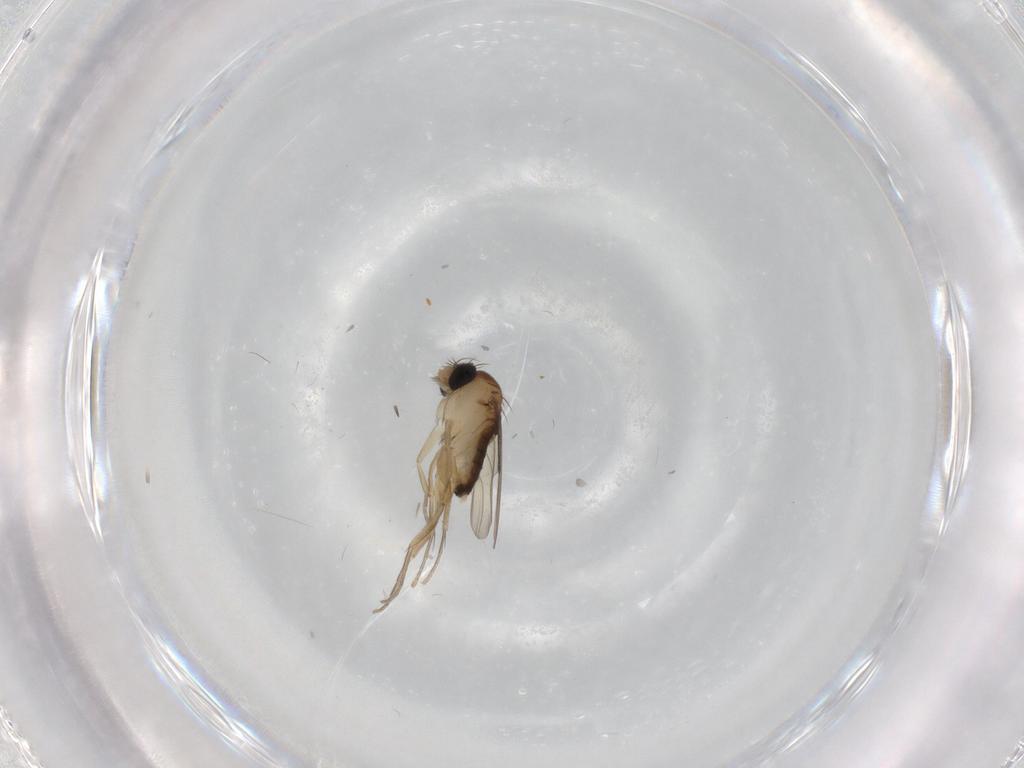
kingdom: Animalia
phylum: Arthropoda
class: Insecta
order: Diptera
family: Phoridae
